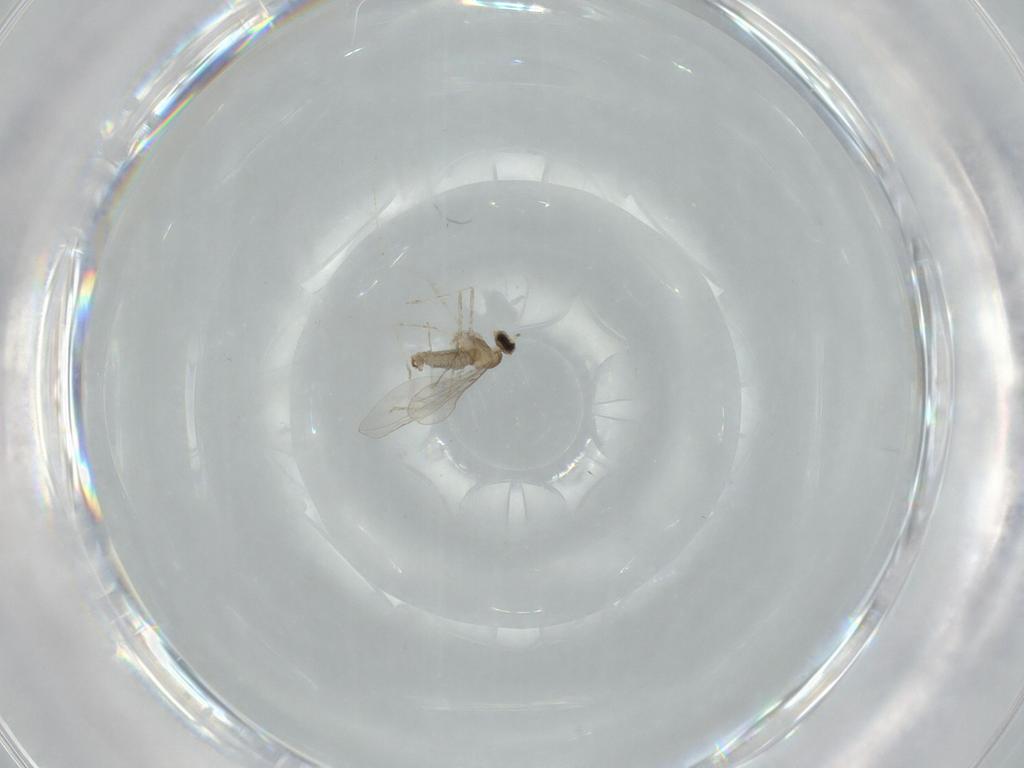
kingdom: Animalia
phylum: Arthropoda
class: Insecta
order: Diptera
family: Cecidomyiidae
